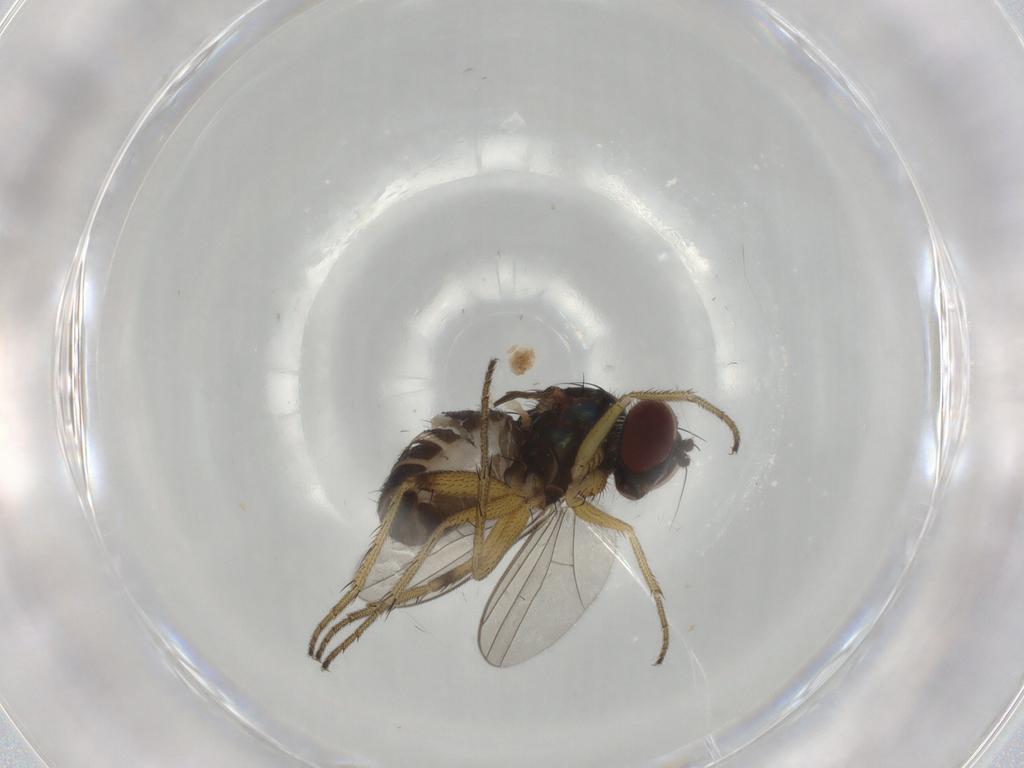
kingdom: Animalia
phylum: Arthropoda
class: Insecta
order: Diptera
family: Dolichopodidae
